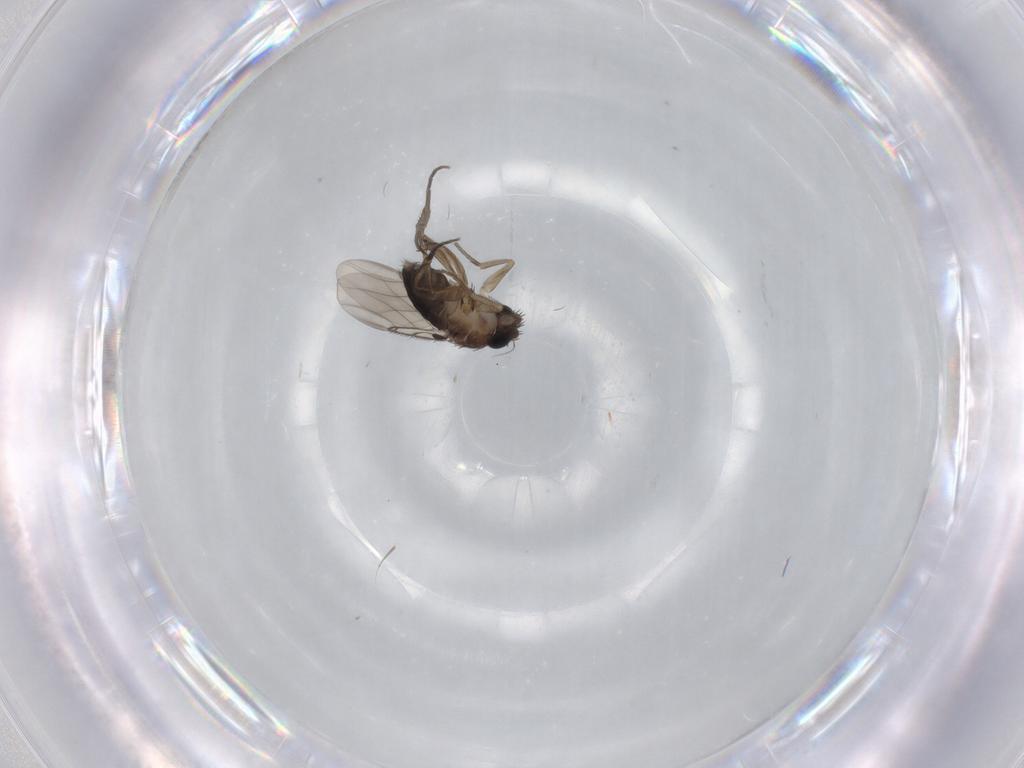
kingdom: Animalia
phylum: Arthropoda
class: Insecta
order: Diptera
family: Phoridae
